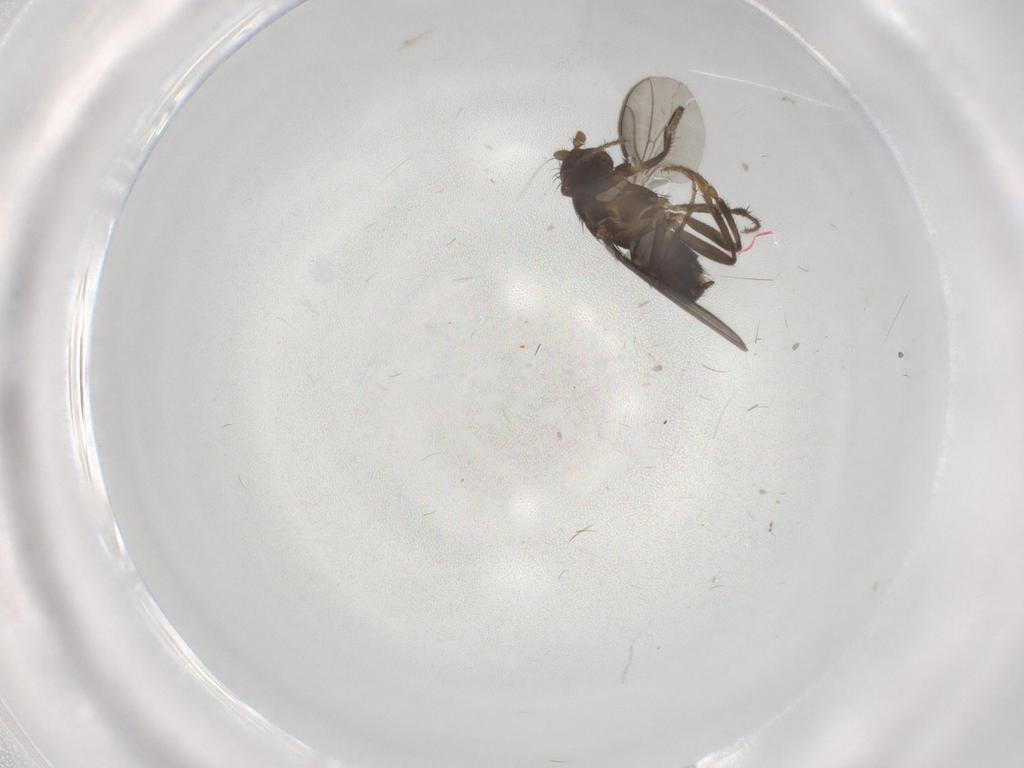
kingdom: Animalia
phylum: Arthropoda
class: Insecta
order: Diptera
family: Sphaeroceridae
